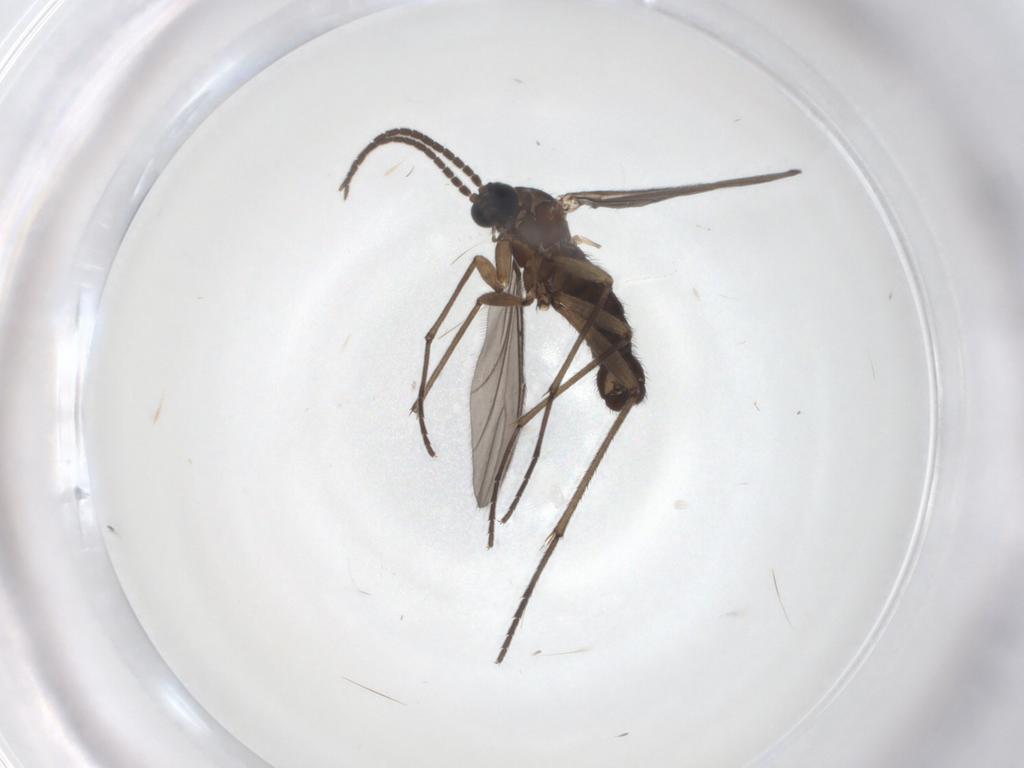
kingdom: Animalia
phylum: Arthropoda
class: Insecta
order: Diptera
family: Sciaridae
